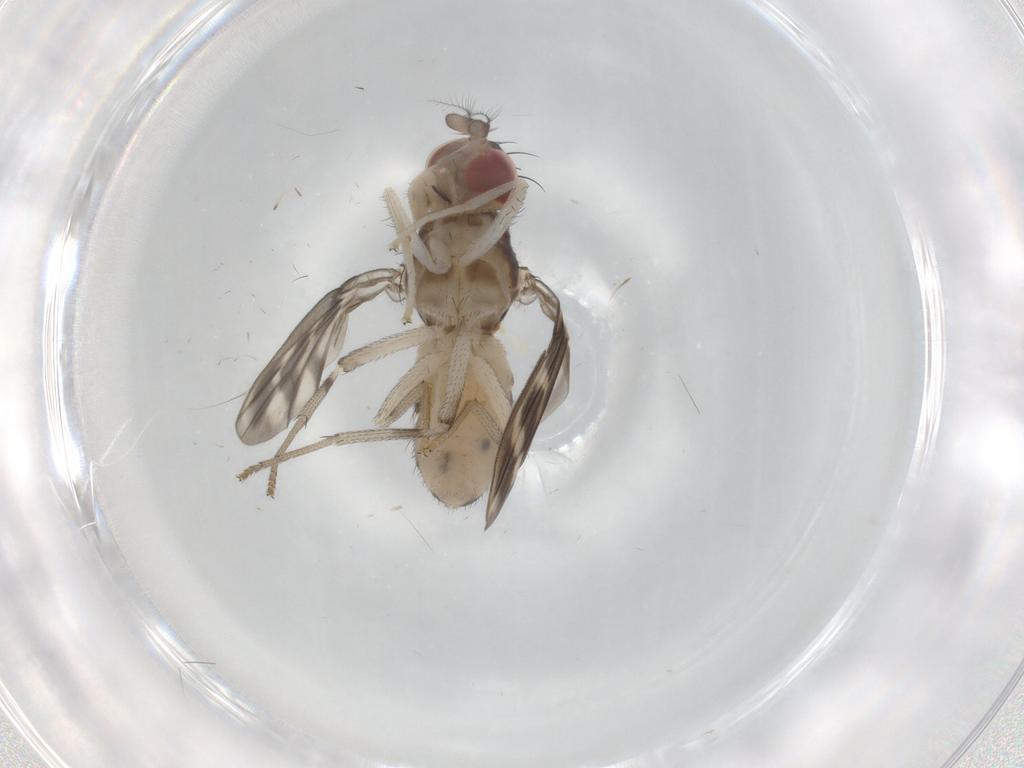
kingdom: Animalia
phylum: Arthropoda
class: Insecta
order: Diptera
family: Lauxaniidae
